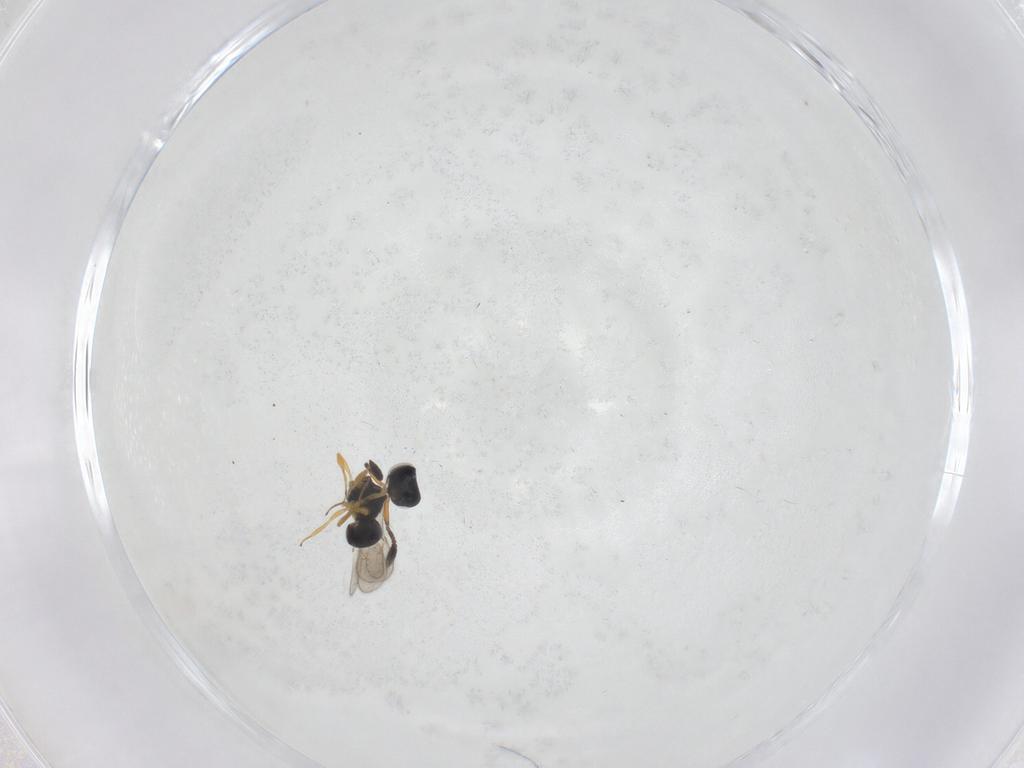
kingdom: Animalia
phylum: Arthropoda
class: Insecta
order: Hymenoptera
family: Scelionidae
